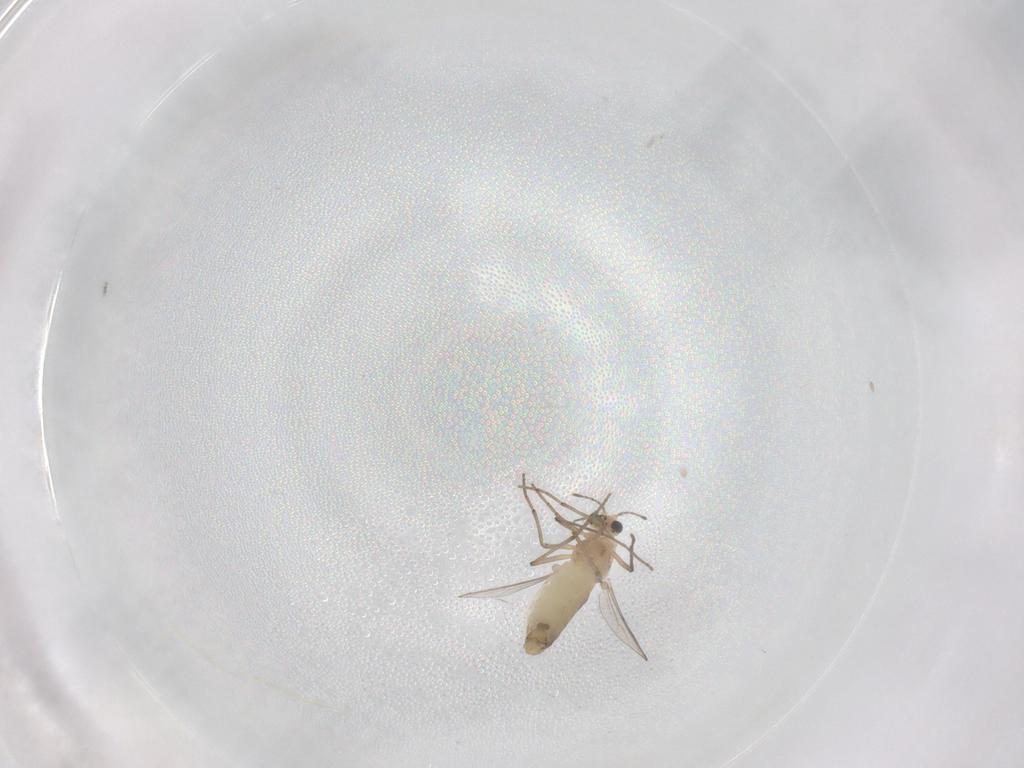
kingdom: Animalia
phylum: Arthropoda
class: Insecta
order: Diptera
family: Chironomidae
